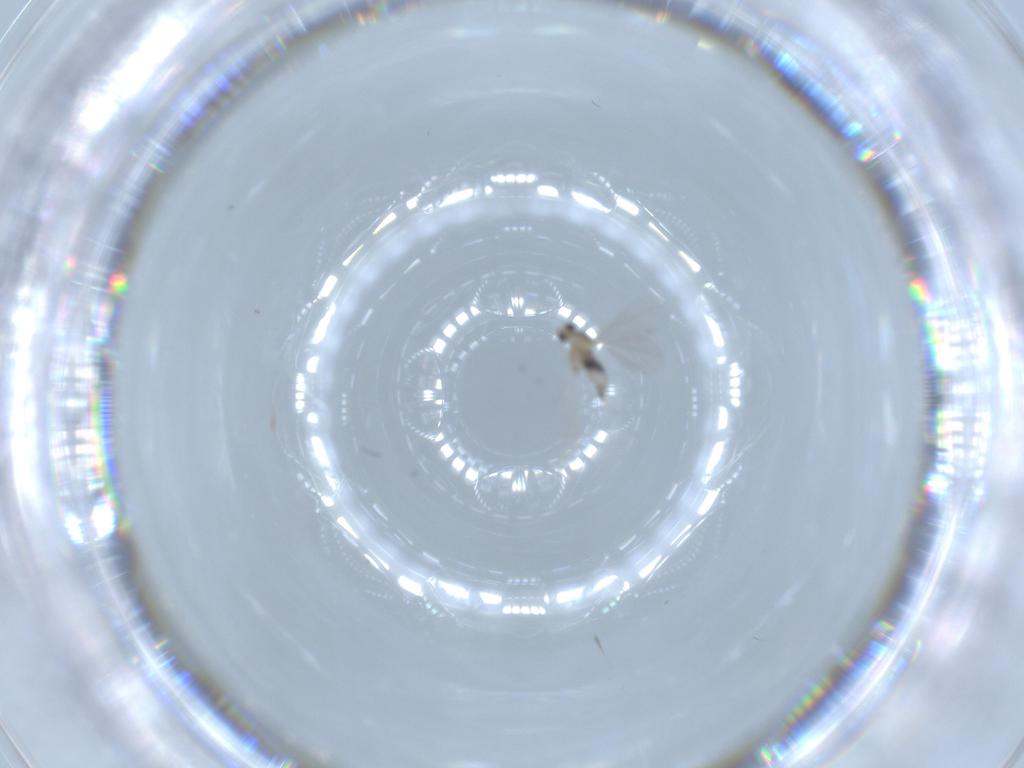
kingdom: Animalia
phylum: Arthropoda
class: Insecta
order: Diptera
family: Cecidomyiidae
